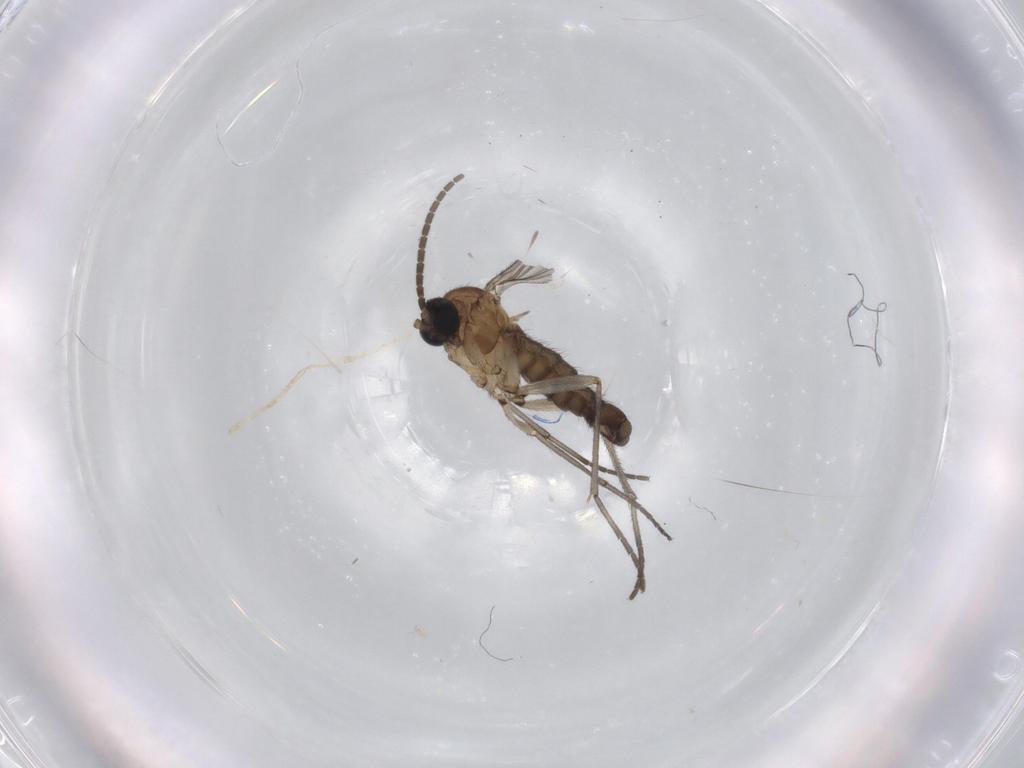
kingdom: Animalia
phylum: Arthropoda
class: Insecta
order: Diptera
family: Sciaridae
